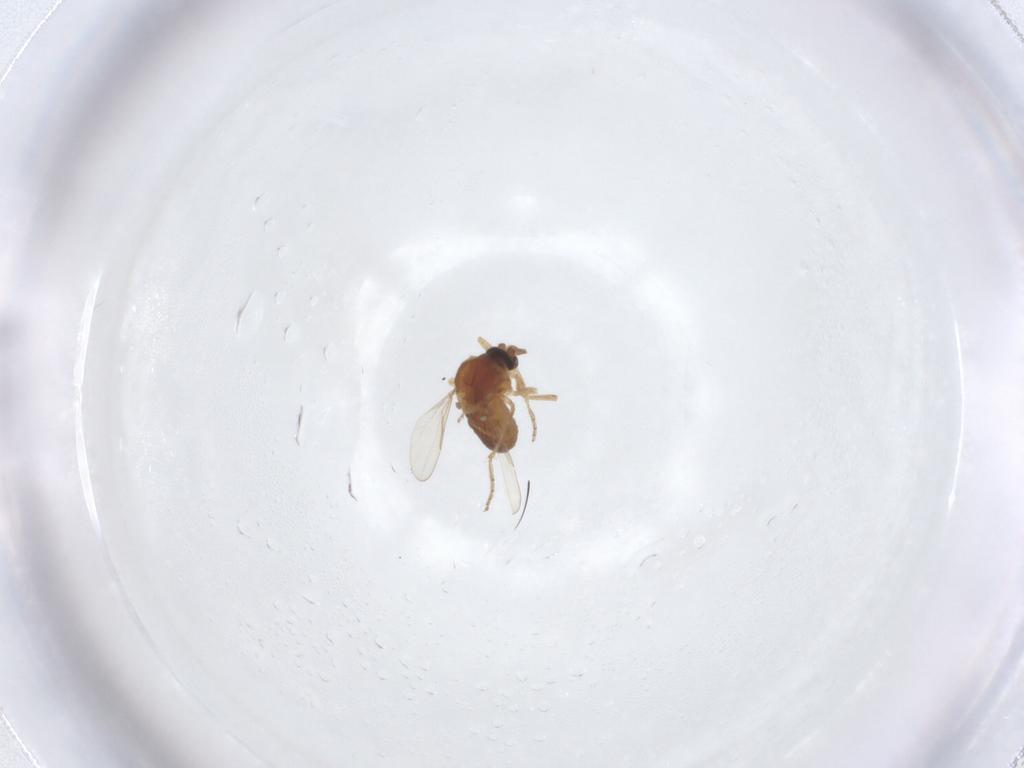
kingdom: Animalia
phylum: Arthropoda
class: Insecta
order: Diptera
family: Ceratopogonidae
